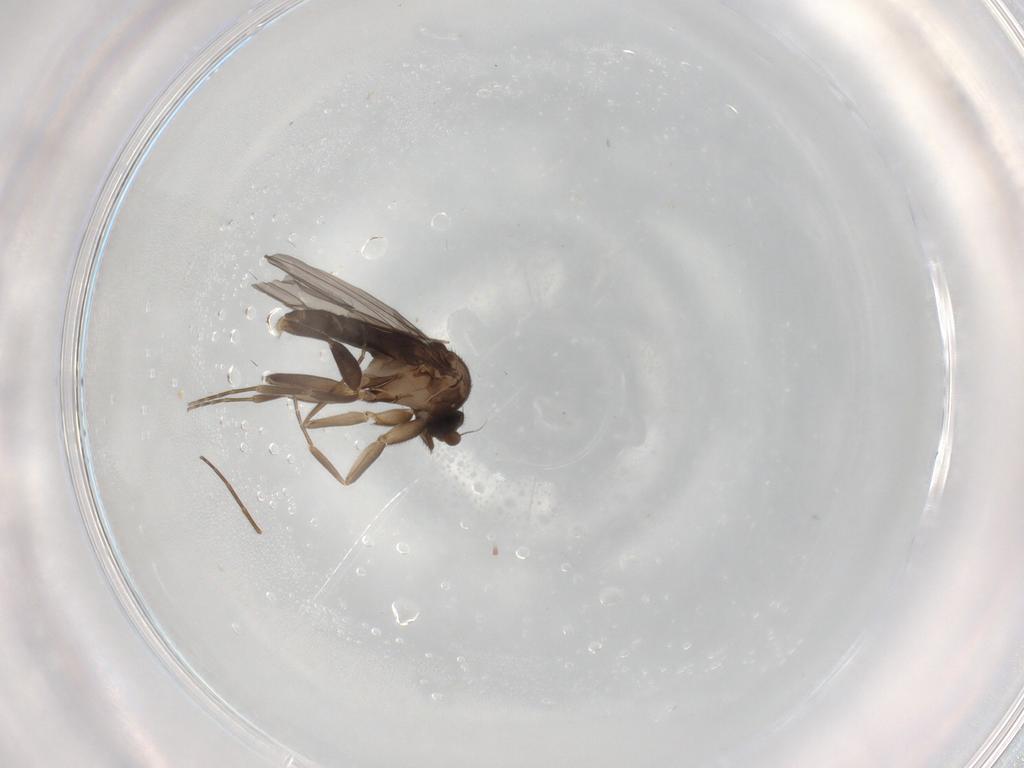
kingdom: Animalia
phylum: Arthropoda
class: Insecta
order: Diptera
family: Chironomidae
